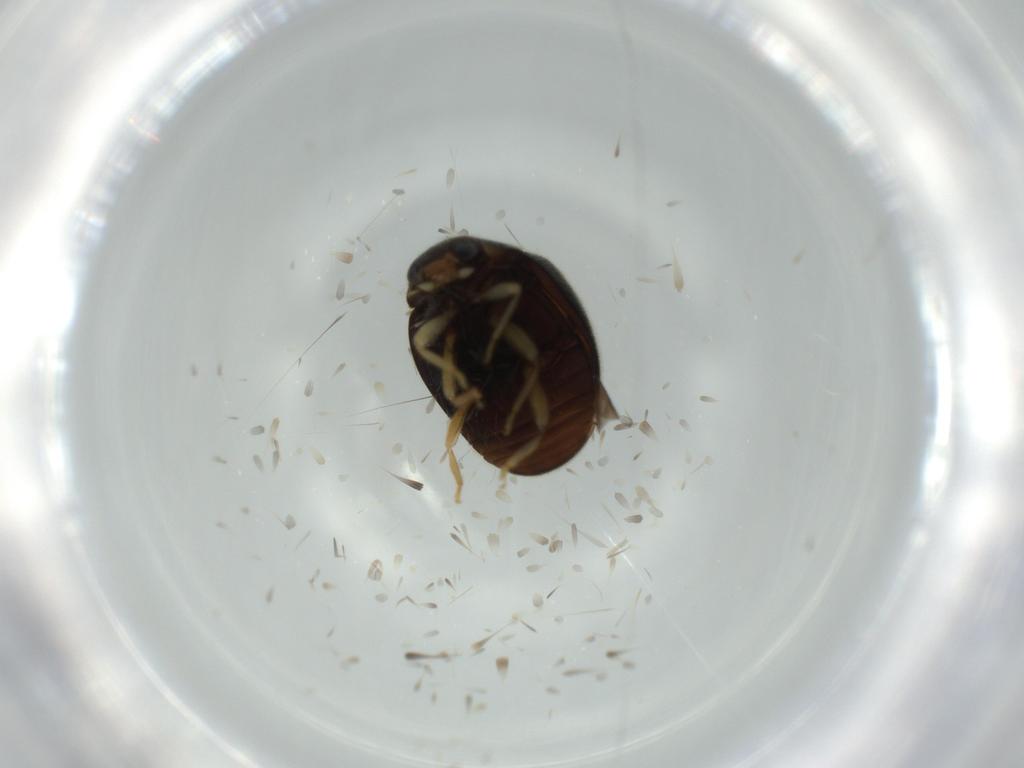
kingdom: Animalia
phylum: Arthropoda
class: Insecta
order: Coleoptera
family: Coccinellidae
